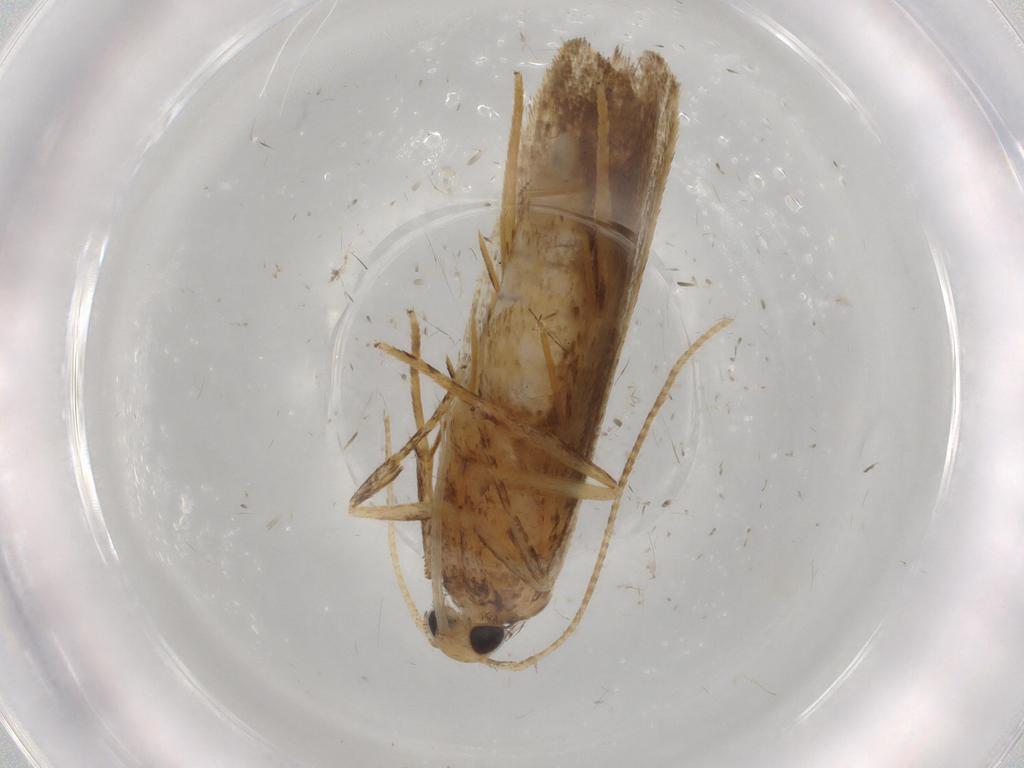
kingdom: Animalia
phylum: Arthropoda
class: Insecta
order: Lepidoptera
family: Autostichidae
